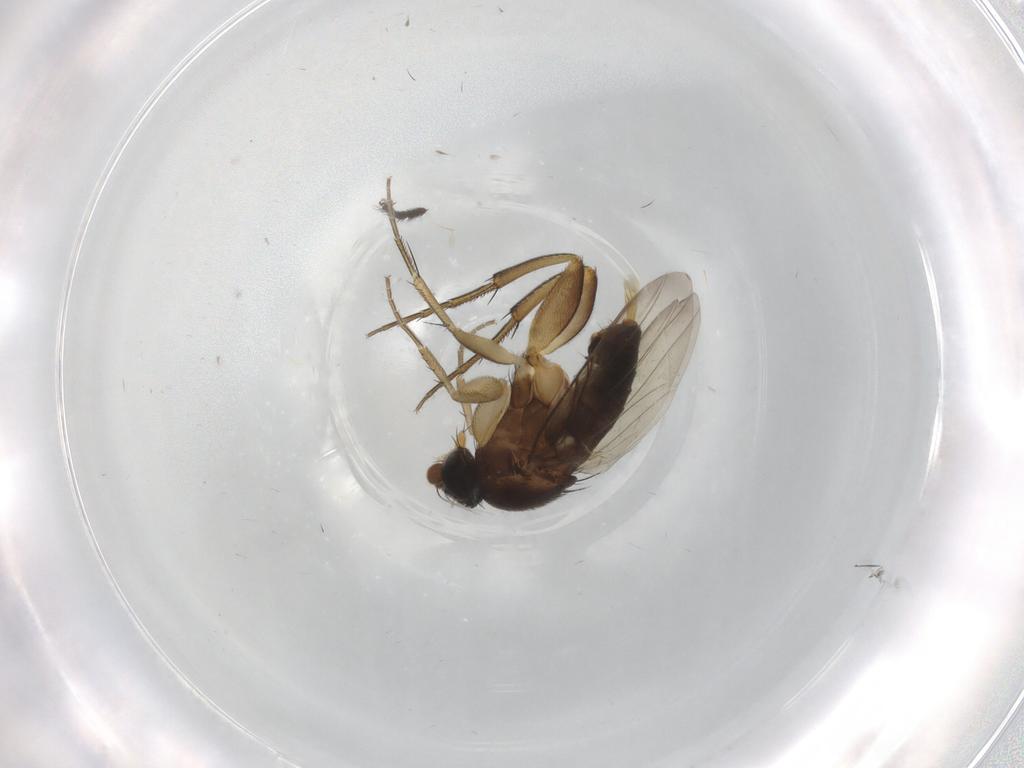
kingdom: Animalia
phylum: Arthropoda
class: Insecta
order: Diptera
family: Phoridae
